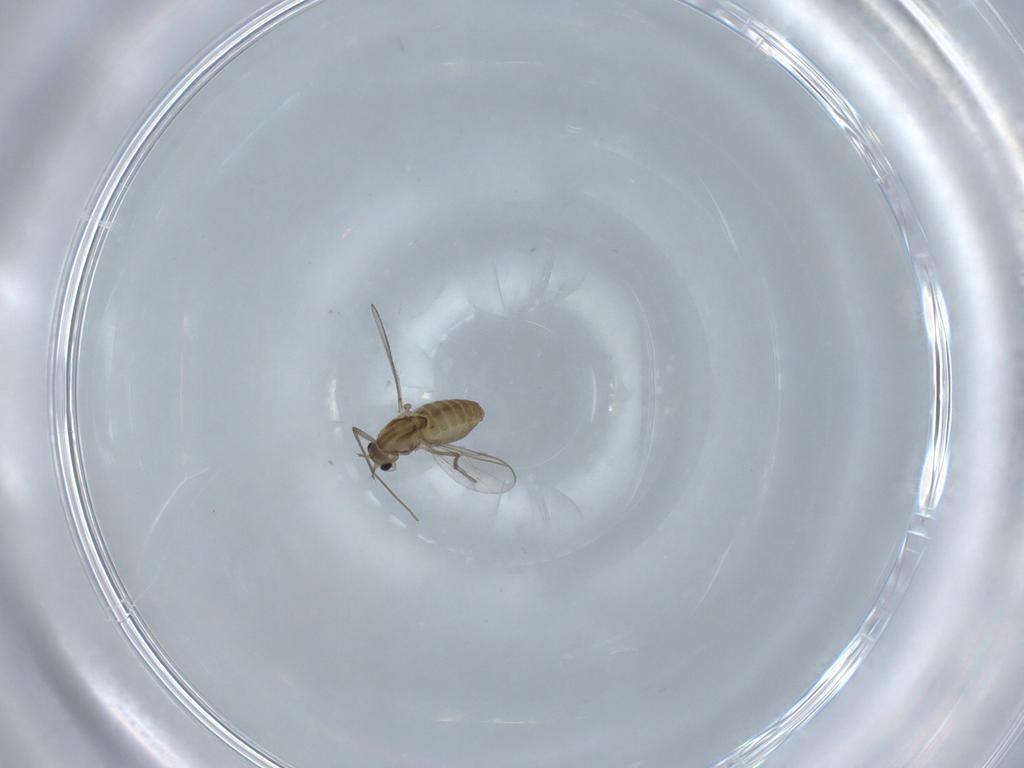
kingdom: Animalia
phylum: Arthropoda
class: Insecta
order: Diptera
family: Chironomidae
